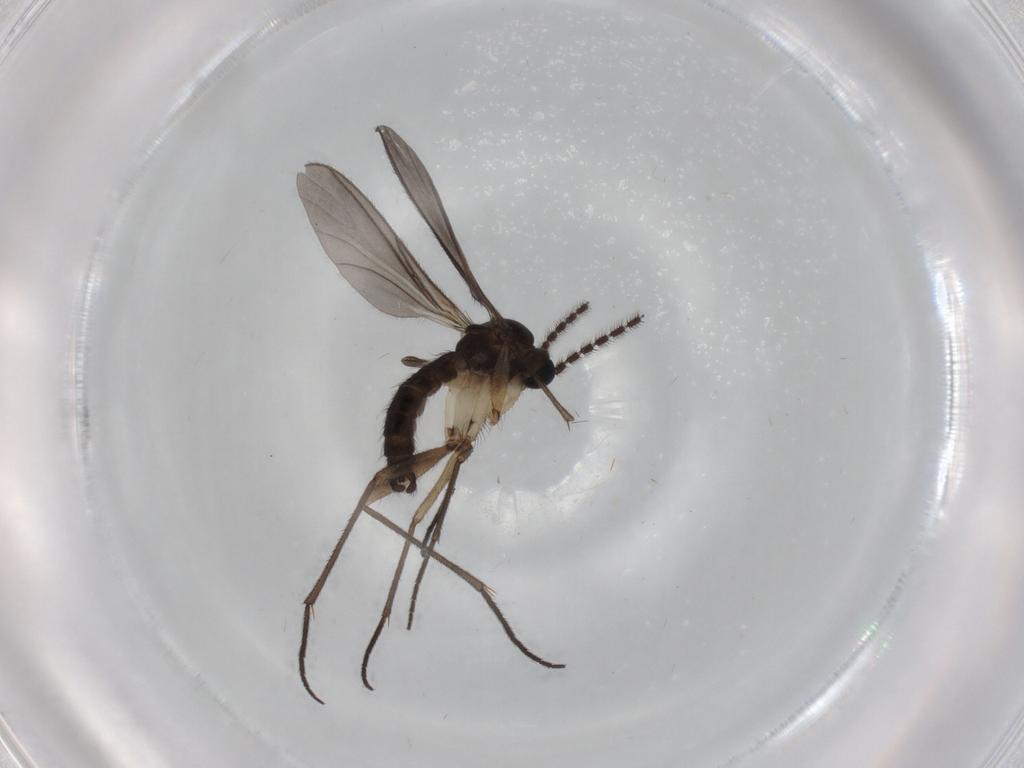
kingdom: Animalia
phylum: Arthropoda
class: Insecta
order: Diptera
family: Sciaridae
